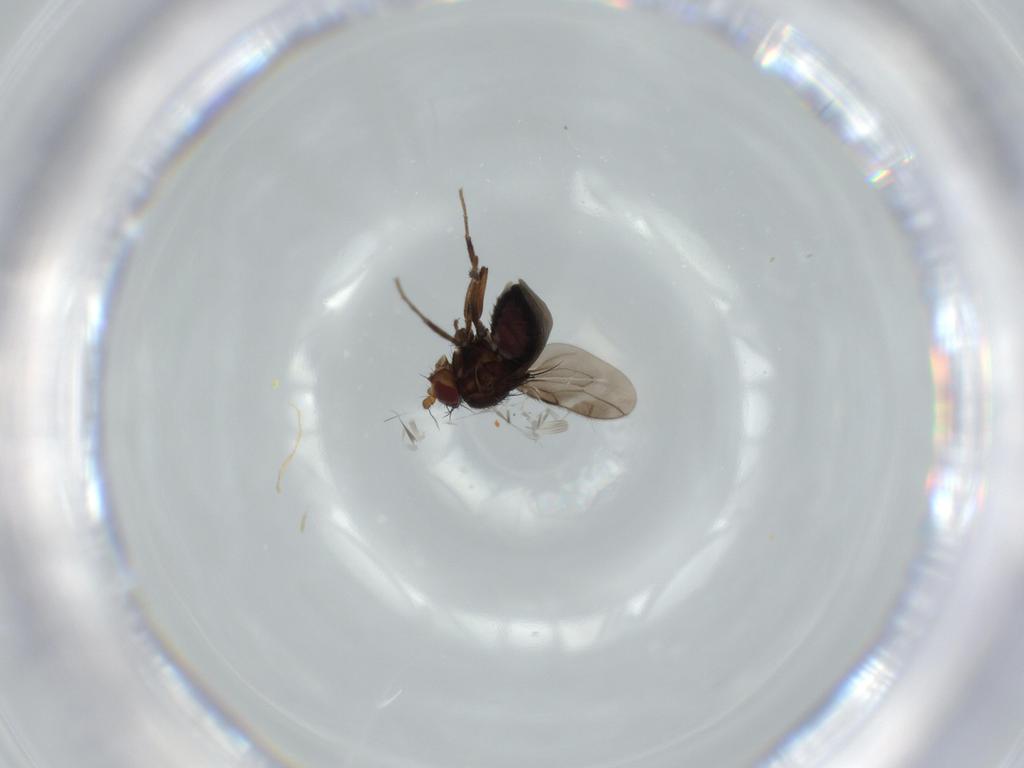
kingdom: Animalia
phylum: Arthropoda
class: Insecta
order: Diptera
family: Sphaeroceridae
